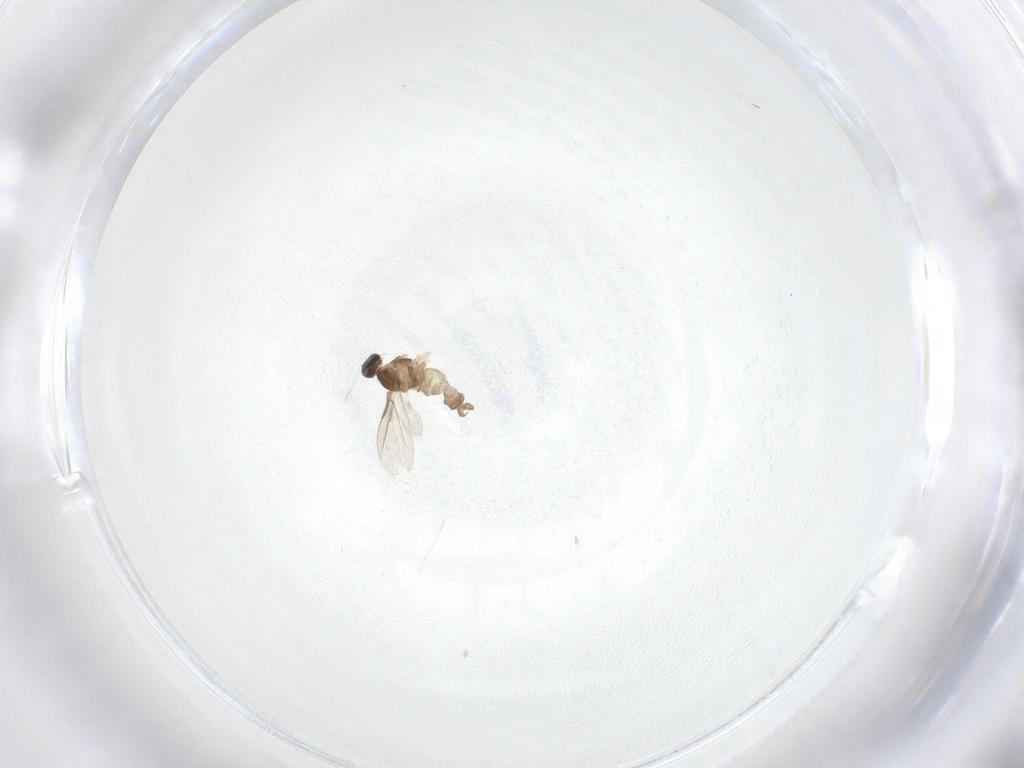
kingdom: Animalia
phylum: Arthropoda
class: Insecta
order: Diptera
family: Cecidomyiidae
